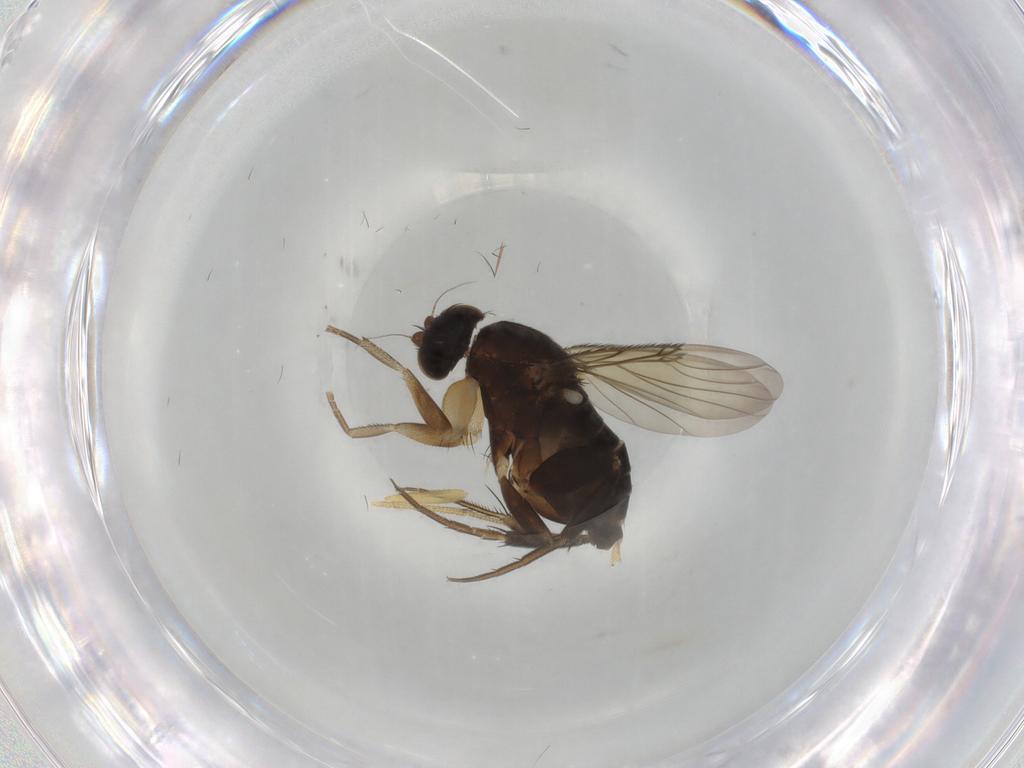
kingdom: Animalia
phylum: Arthropoda
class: Insecta
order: Diptera
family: Phoridae
